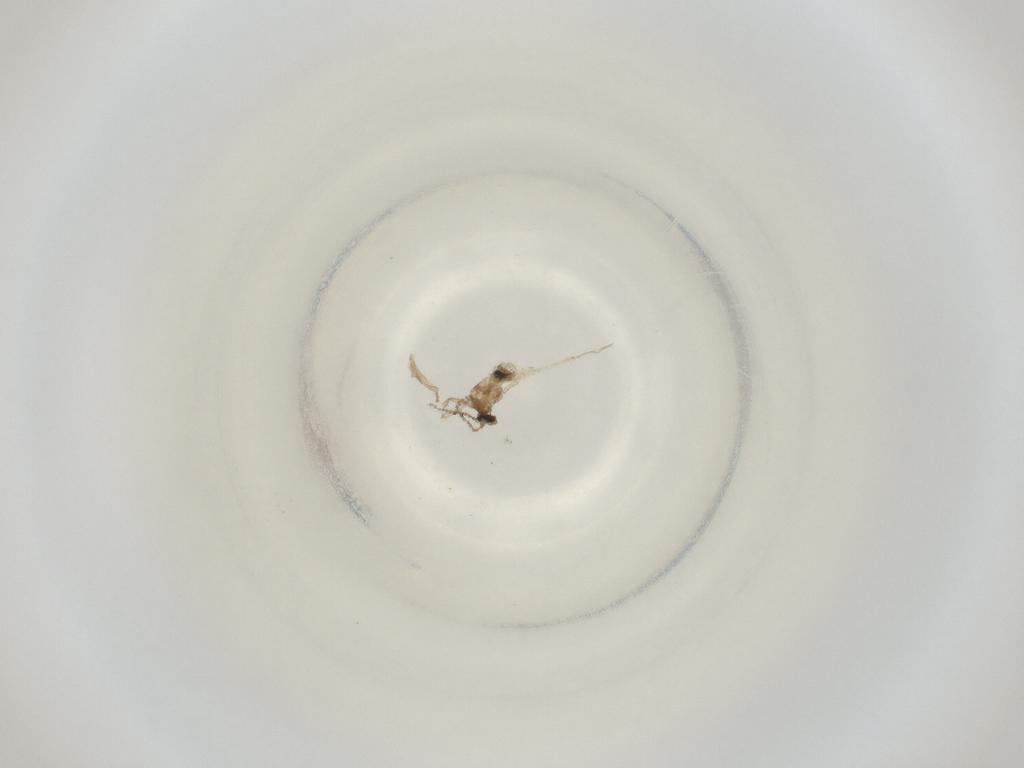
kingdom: Animalia
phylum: Arthropoda
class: Insecta
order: Diptera
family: Cecidomyiidae
